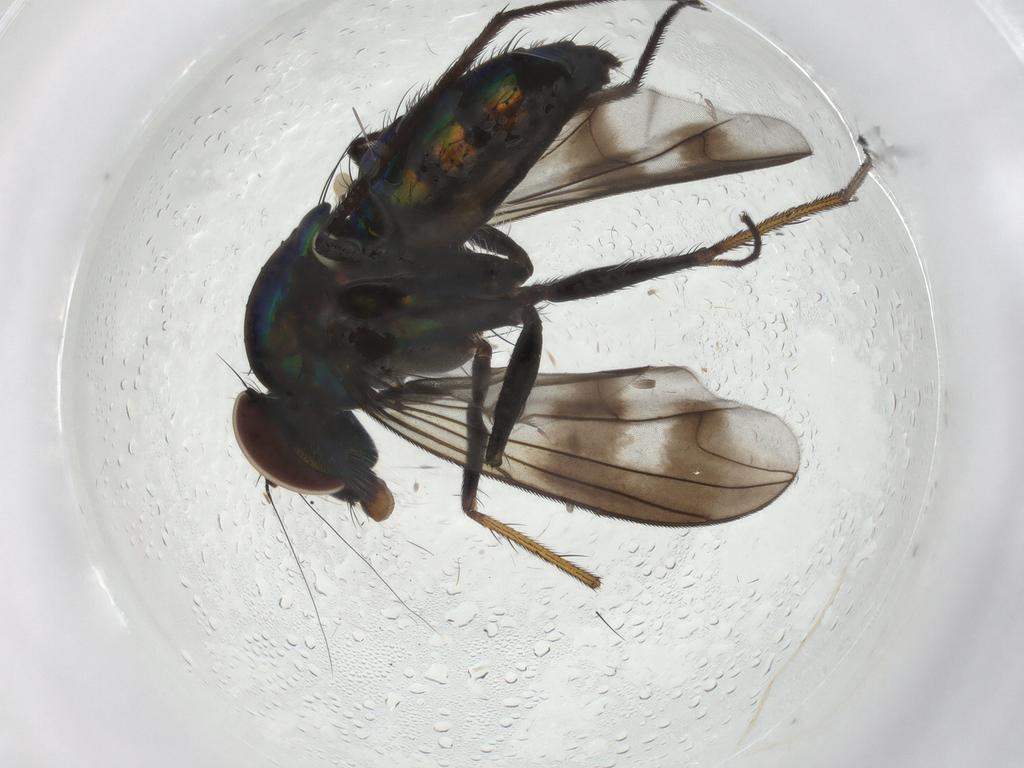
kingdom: Animalia
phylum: Arthropoda
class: Insecta
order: Diptera
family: Dolichopodidae
